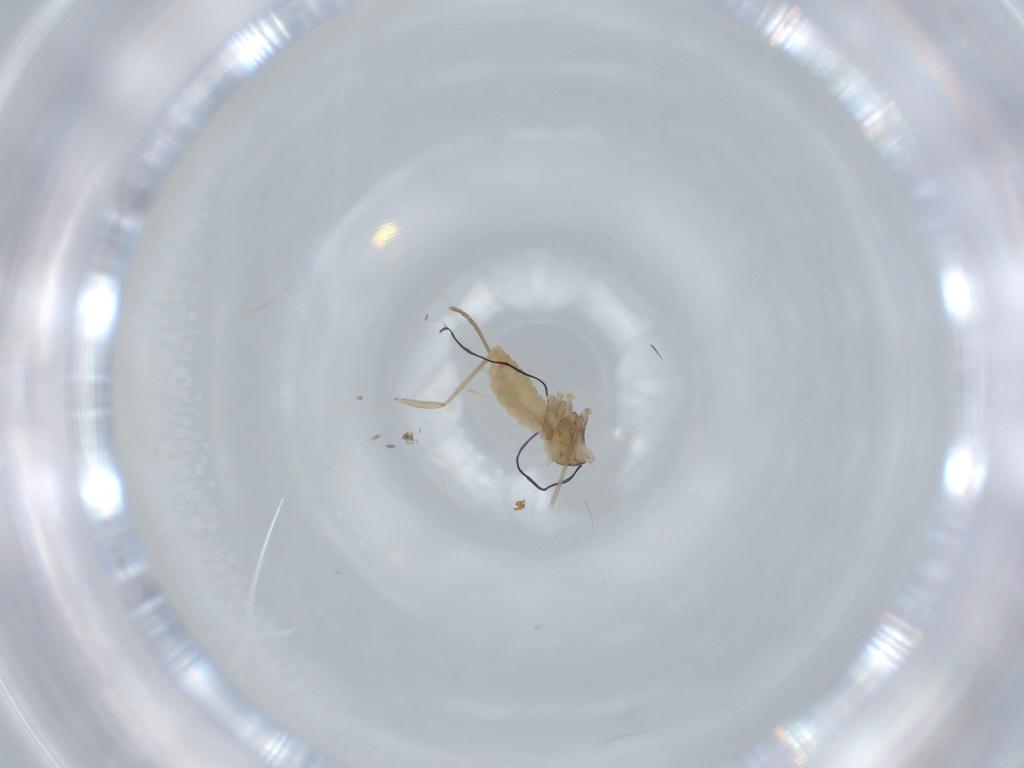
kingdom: Animalia
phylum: Arthropoda
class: Insecta
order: Diptera
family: Cecidomyiidae
